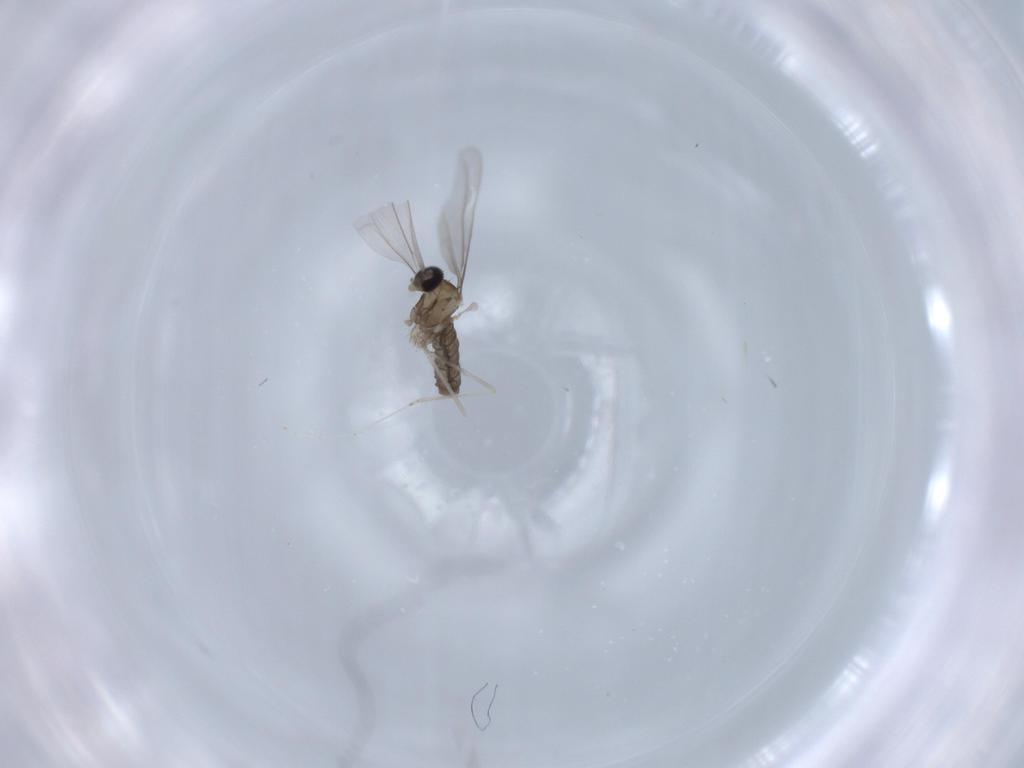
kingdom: Animalia
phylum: Arthropoda
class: Insecta
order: Diptera
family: Cecidomyiidae
